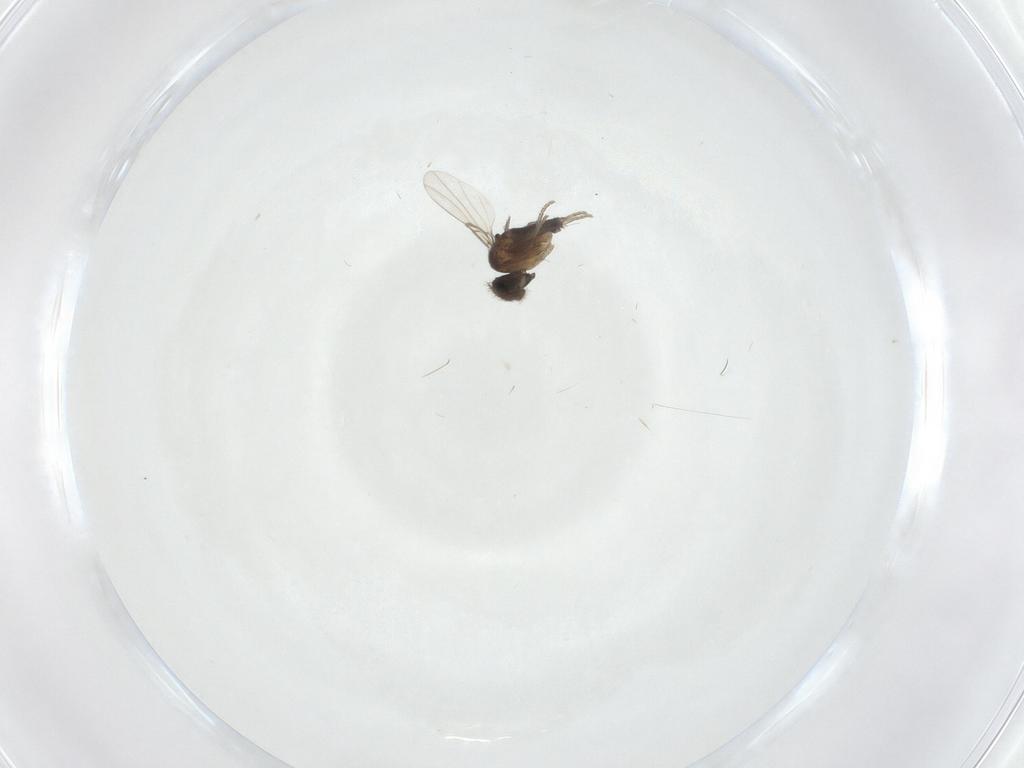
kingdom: Animalia
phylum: Arthropoda
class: Insecta
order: Diptera
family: Phoridae
